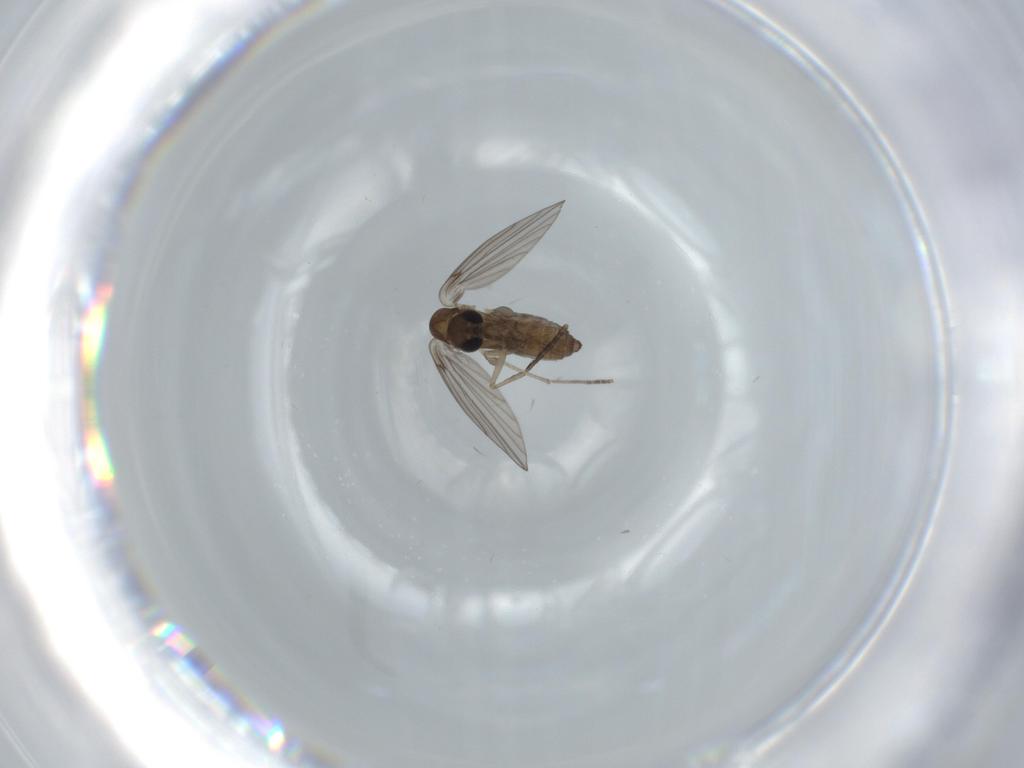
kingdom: Animalia
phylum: Arthropoda
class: Insecta
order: Diptera
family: Psychodidae
